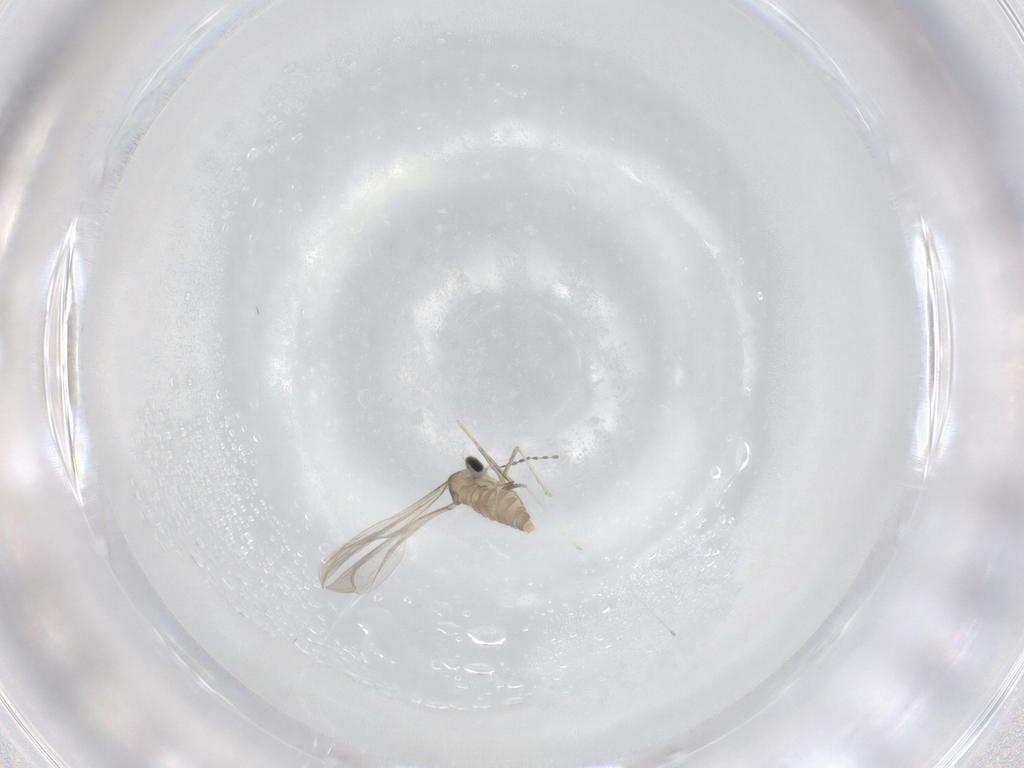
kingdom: Animalia
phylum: Arthropoda
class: Insecta
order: Diptera
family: Cecidomyiidae
